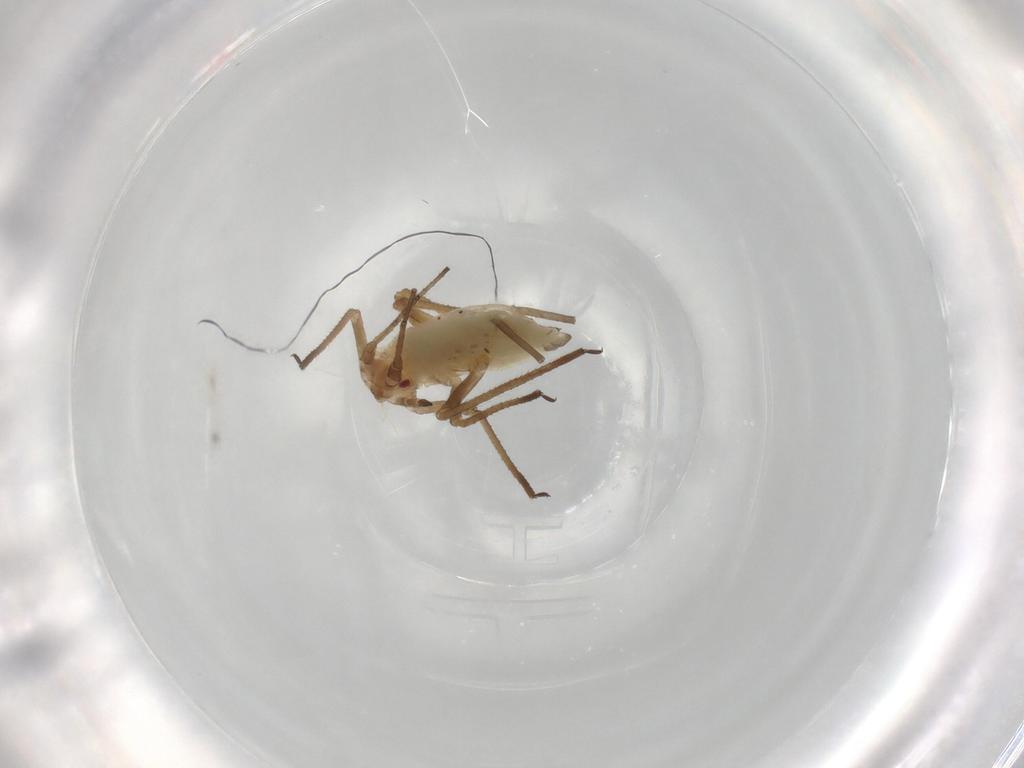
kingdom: Animalia
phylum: Arthropoda
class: Insecta
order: Hemiptera
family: Aphididae
